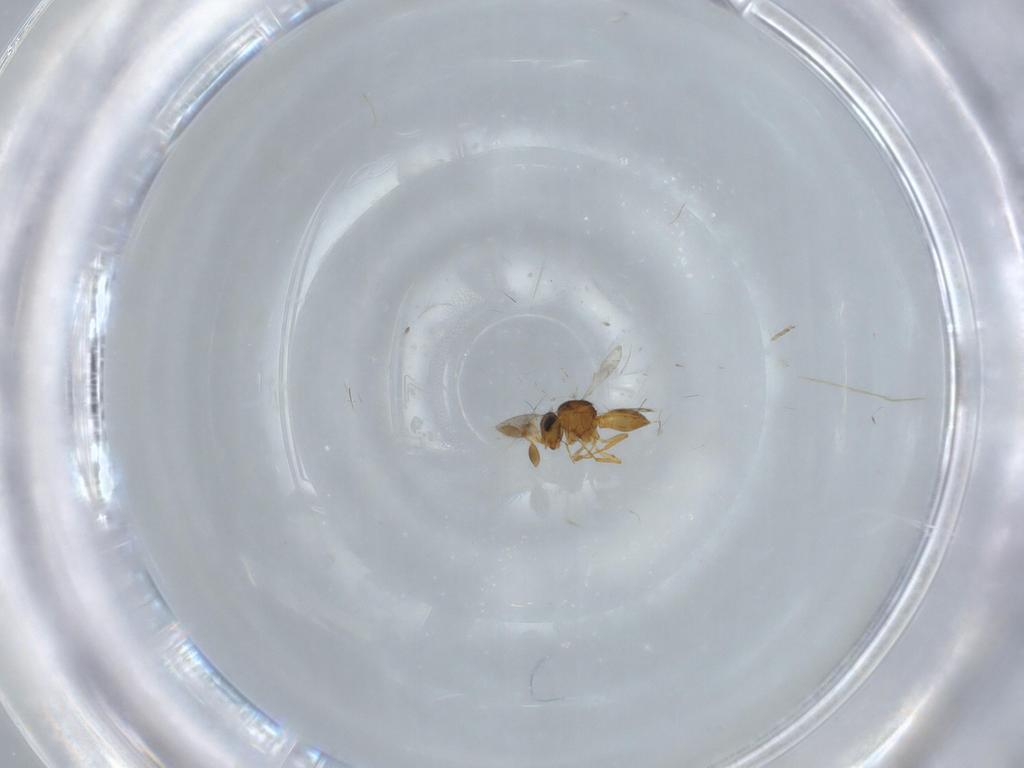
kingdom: Animalia
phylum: Arthropoda
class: Insecta
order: Hymenoptera
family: Scelionidae
